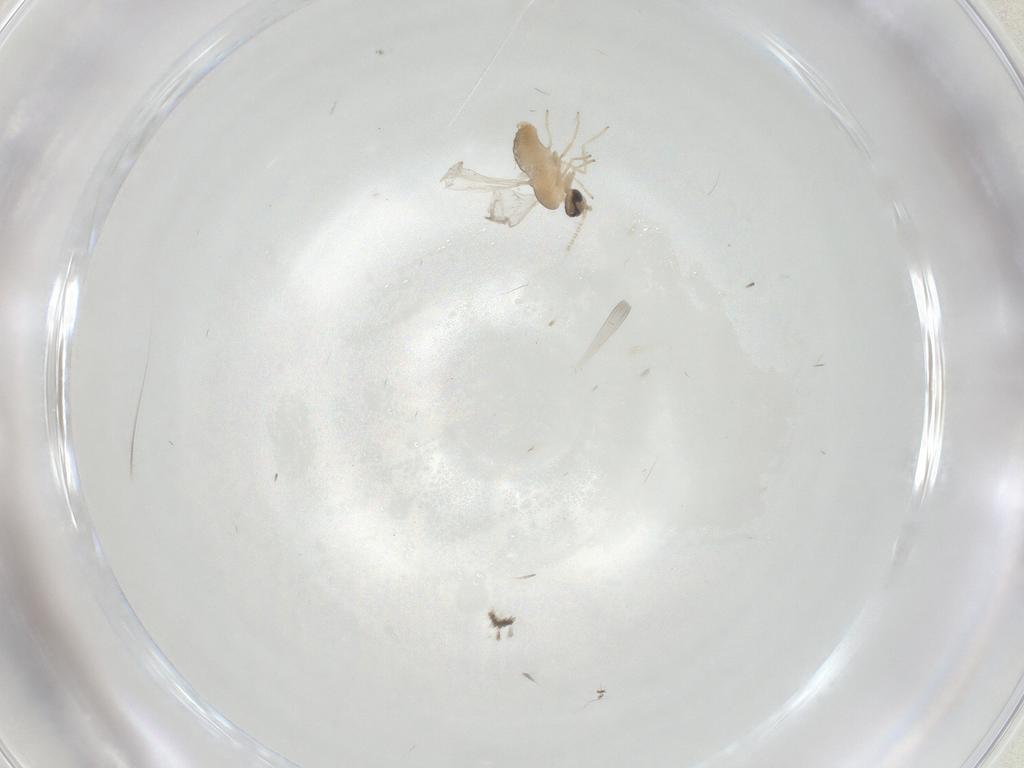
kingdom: Animalia
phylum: Arthropoda
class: Insecta
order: Diptera
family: Cecidomyiidae
